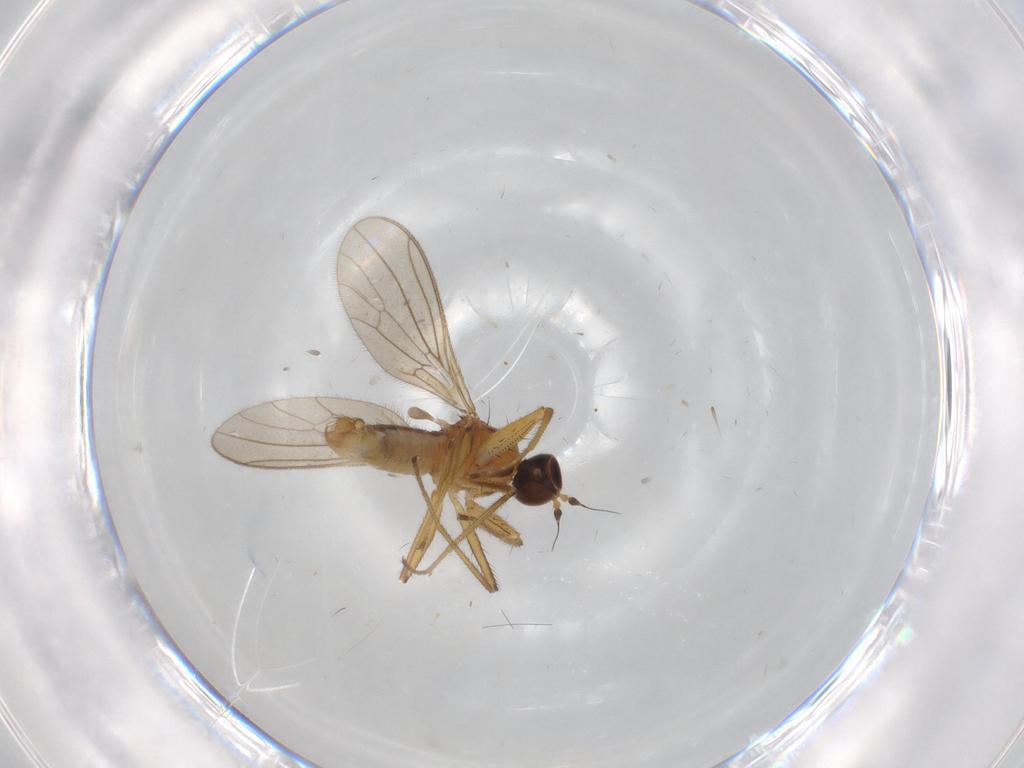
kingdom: Animalia
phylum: Arthropoda
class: Insecta
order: Diptera
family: Empididae
